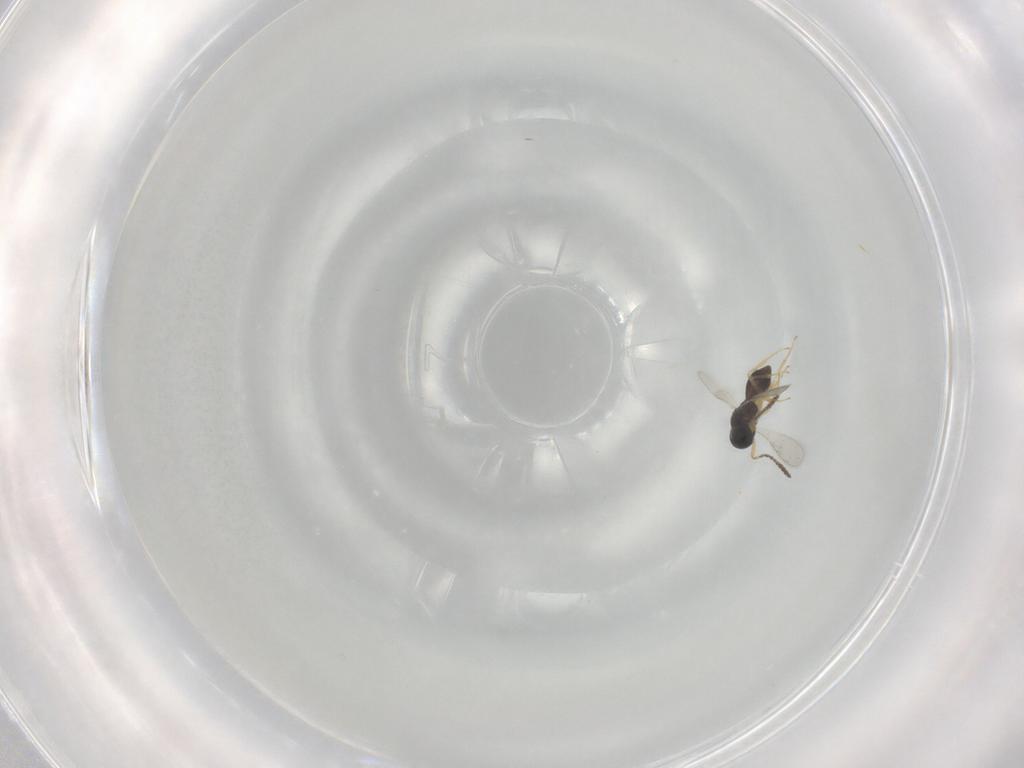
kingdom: Animalia
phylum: Arthropoda
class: Insecta
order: Hymenoptera
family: Scelionidae
